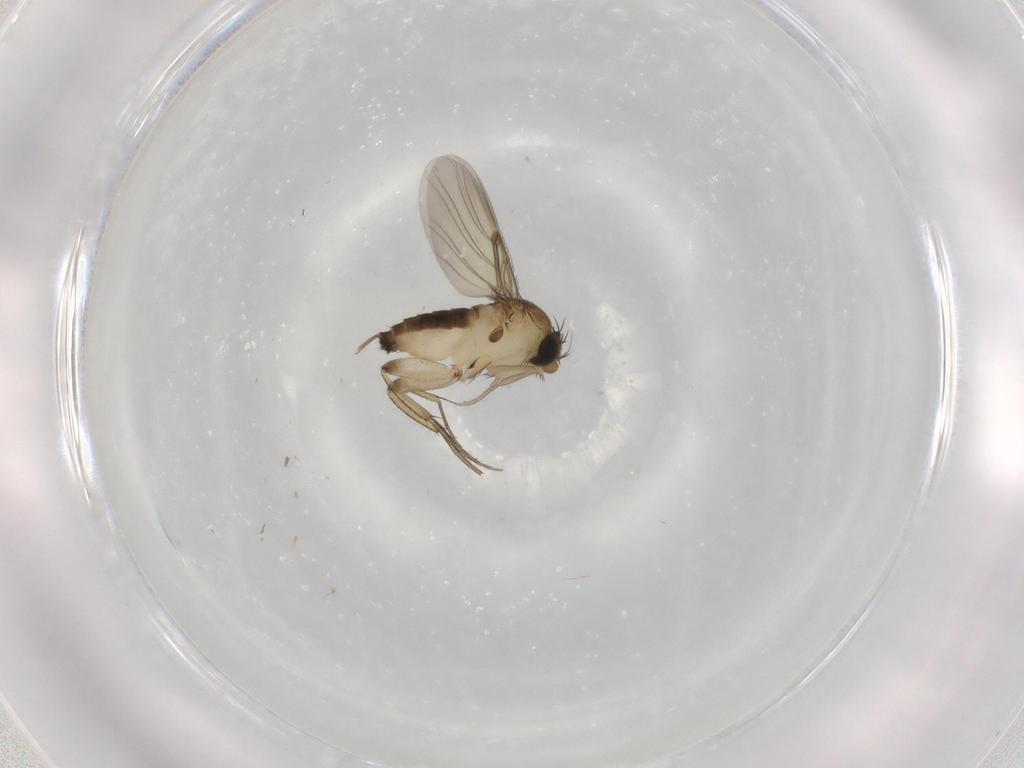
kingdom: Animalia
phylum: Arthropoda
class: Insecta
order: Diptera
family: Phoridae
